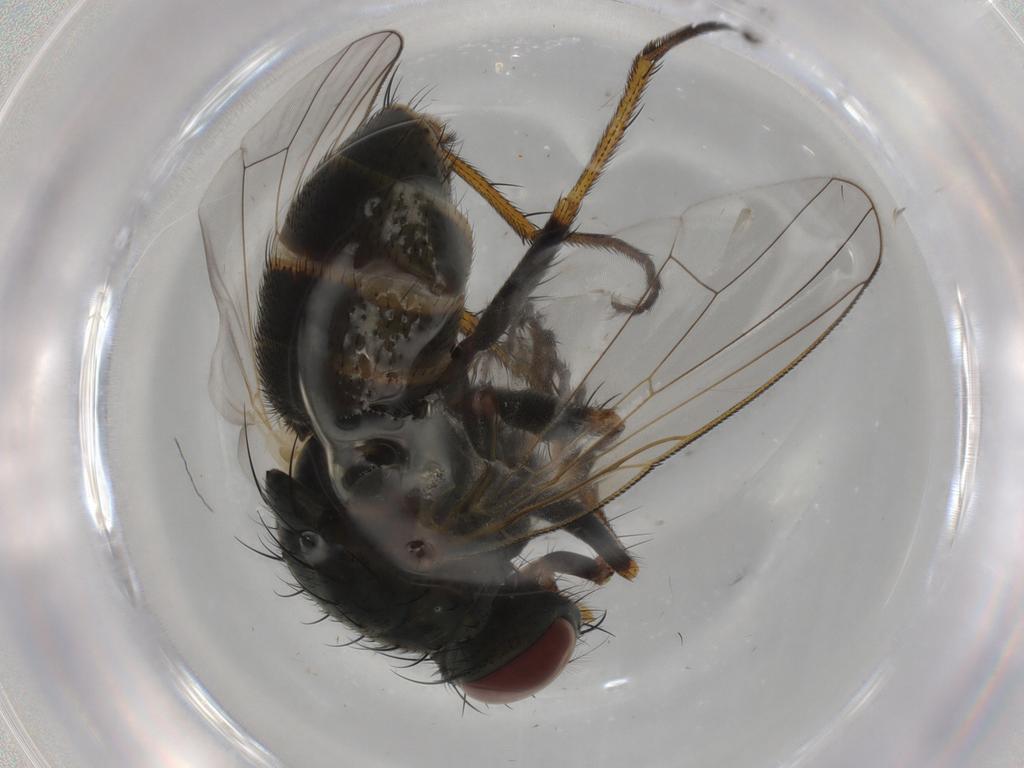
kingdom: Animalia
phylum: Arthropoda
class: Insecta
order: Diptera
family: Muscidae
